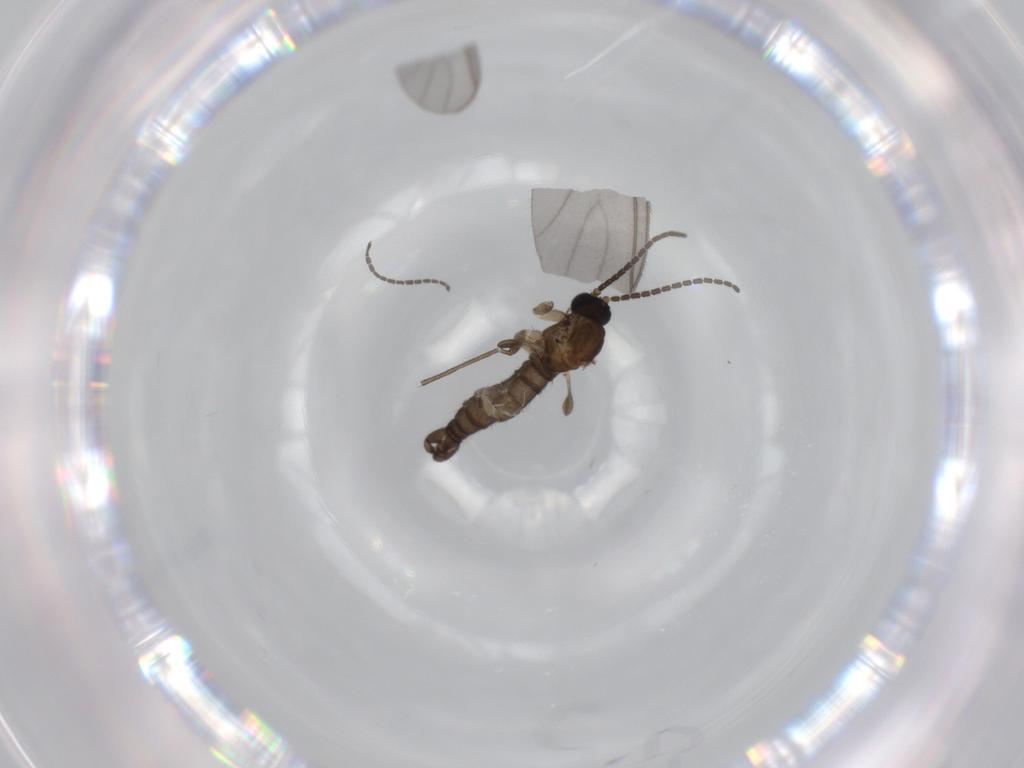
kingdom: Animalia
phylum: Arthropoda
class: Insecta
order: Diptera
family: Sciaridae
